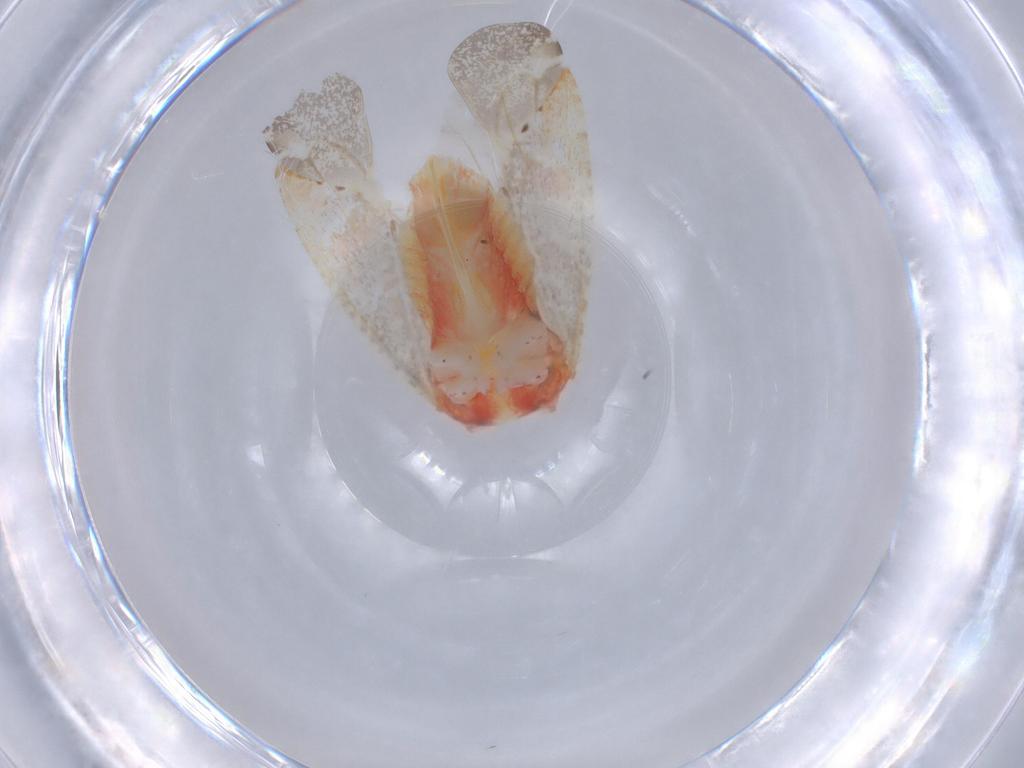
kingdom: Animalia
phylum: Arthropoda
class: Insecta
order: Hemiptera
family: Miridae
